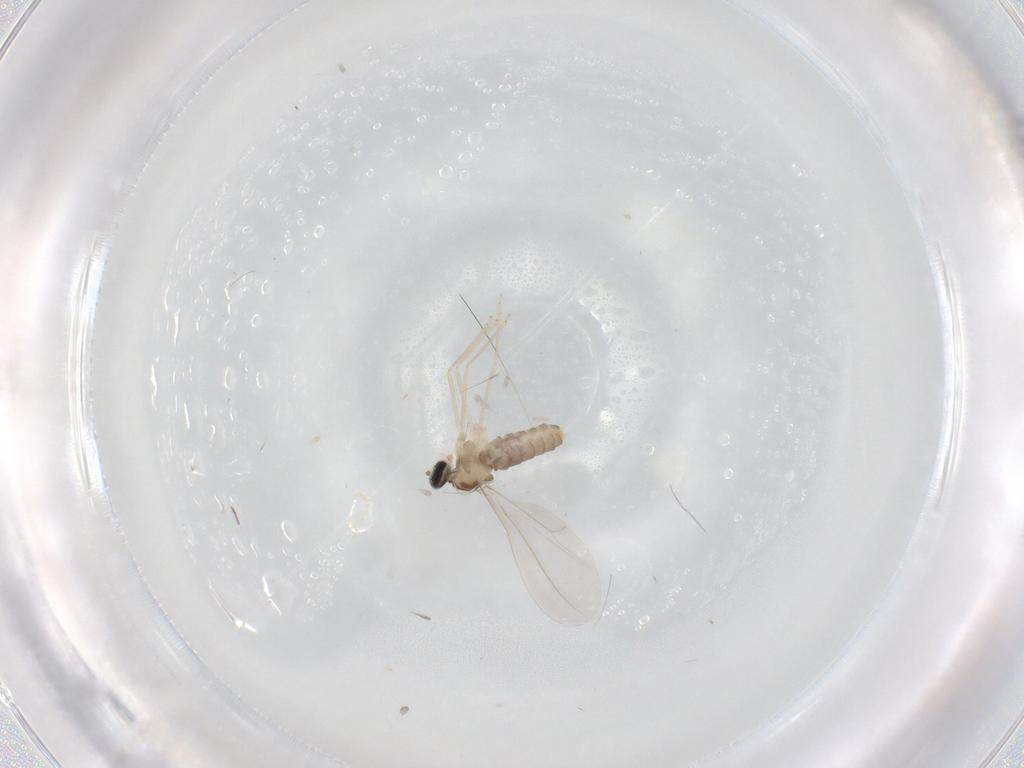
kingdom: Animalia
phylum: Arthropoda
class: Insecta
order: Diptera
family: Cecidomyiidae
